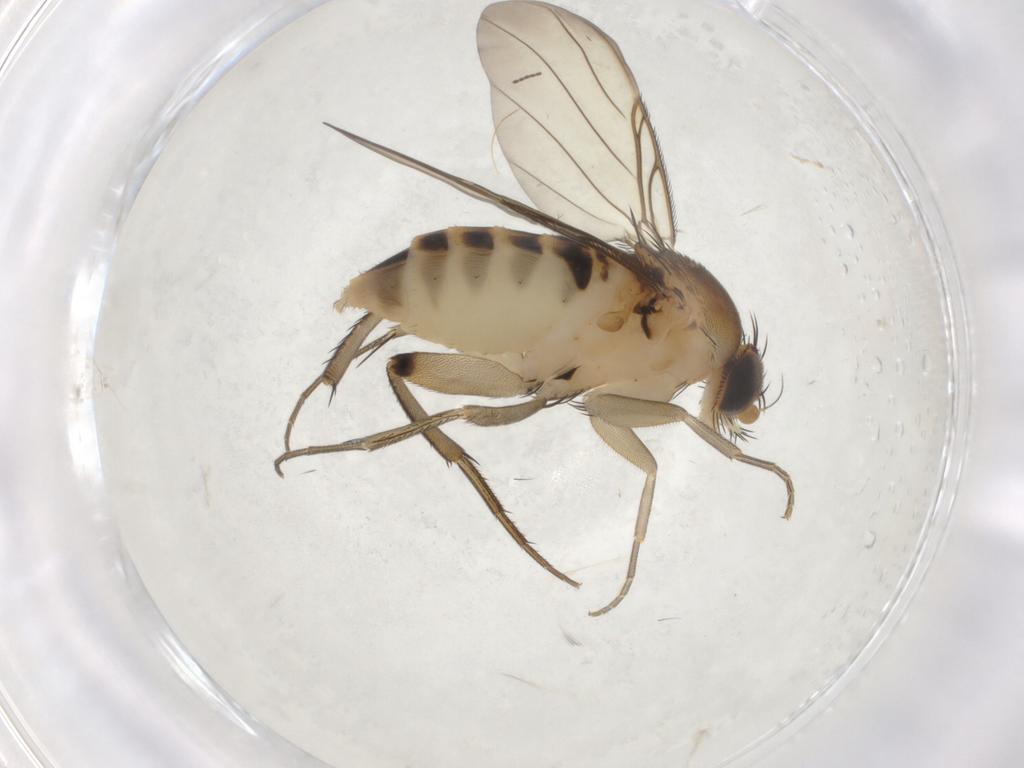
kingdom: Animalia
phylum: Arthropoda
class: Insecta
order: Diptera
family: Phoridae
